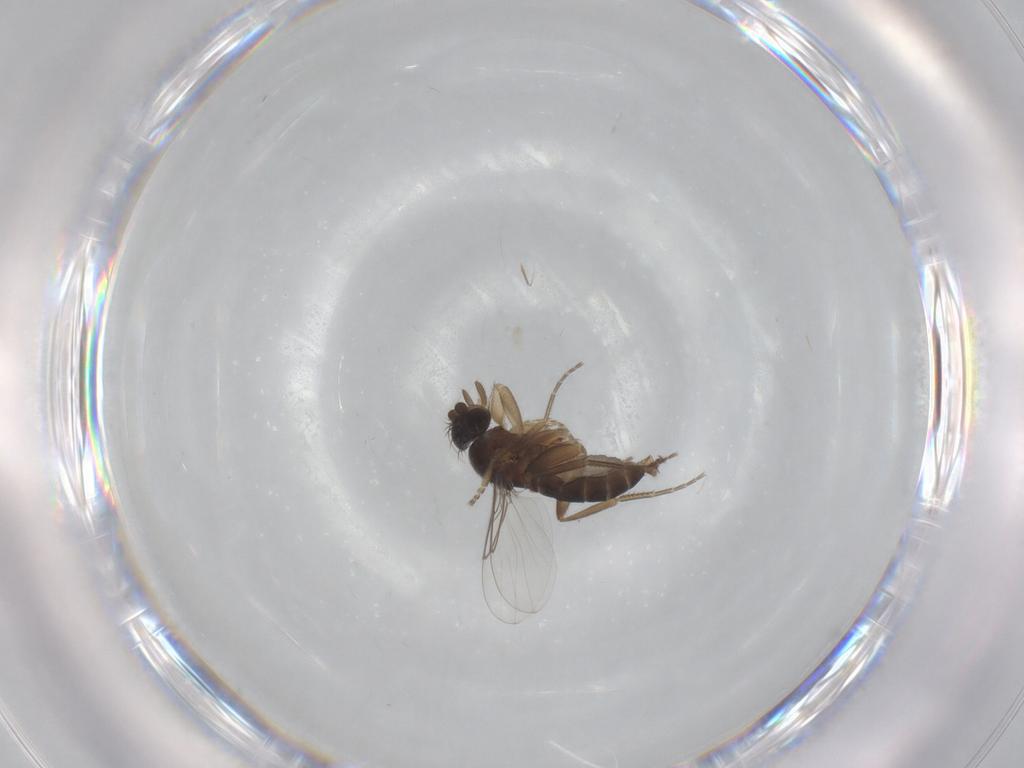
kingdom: Animalia
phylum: Arthropoda
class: Insecta
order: Diptera
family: Phoridae
